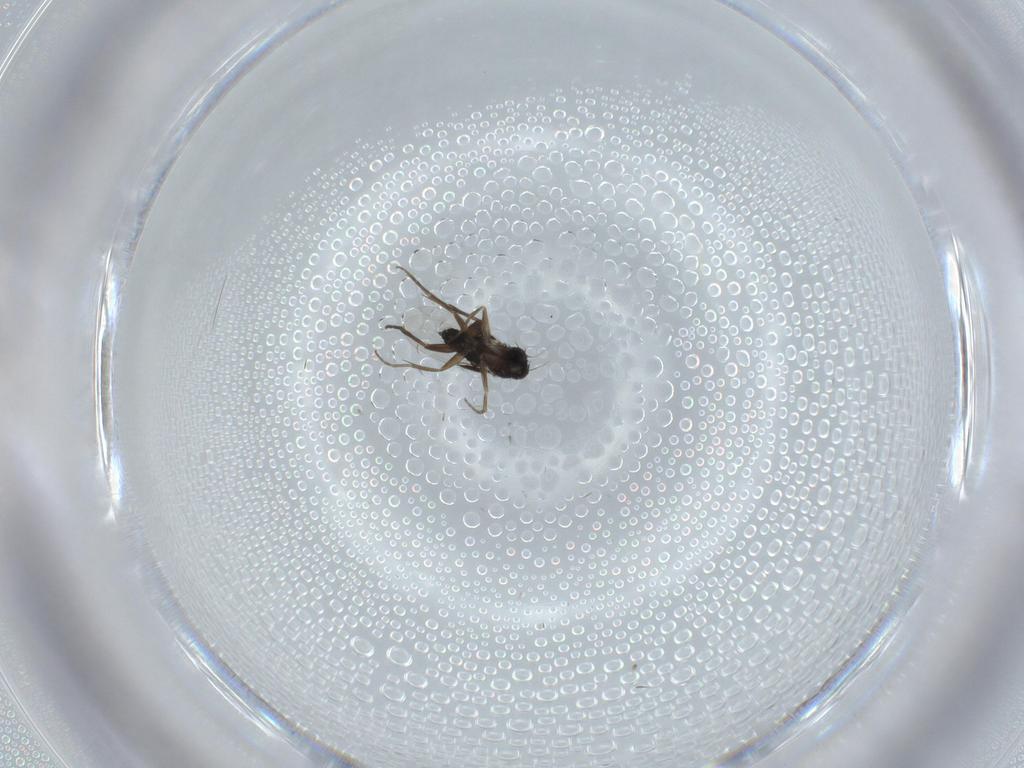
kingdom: Animalia
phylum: Arthropoda
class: Insecta
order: Diptera
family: Phoridae
